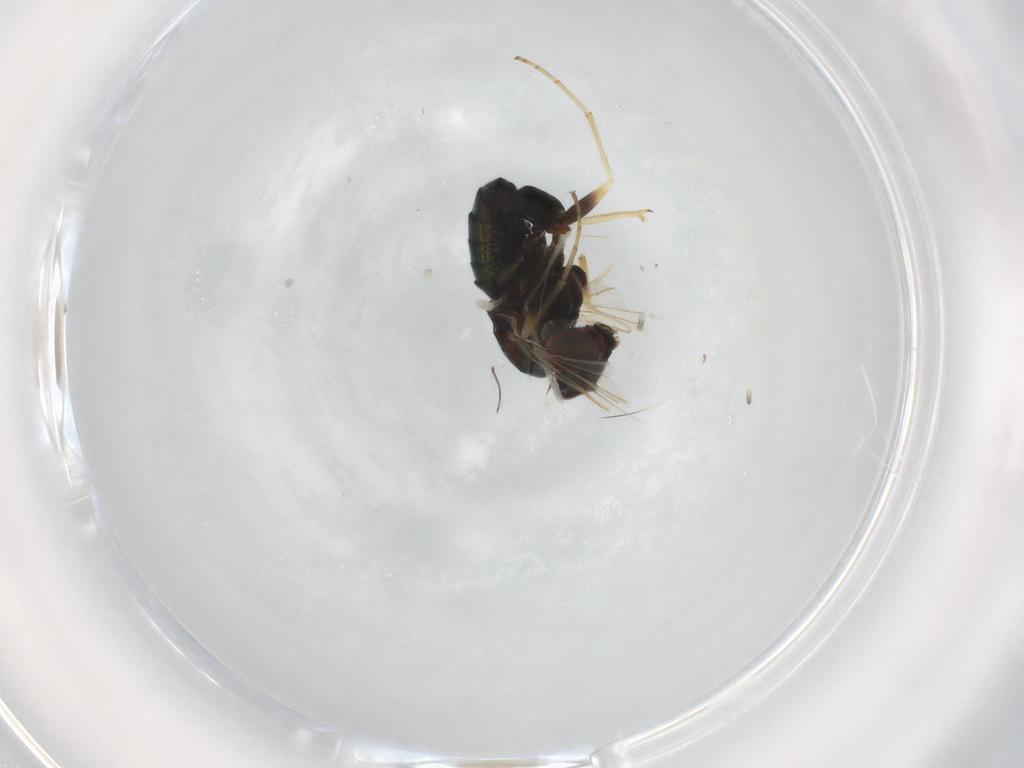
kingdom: Animalia
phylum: Arthropoda
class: Insecta
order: Diptera
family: Dolichopodidae
